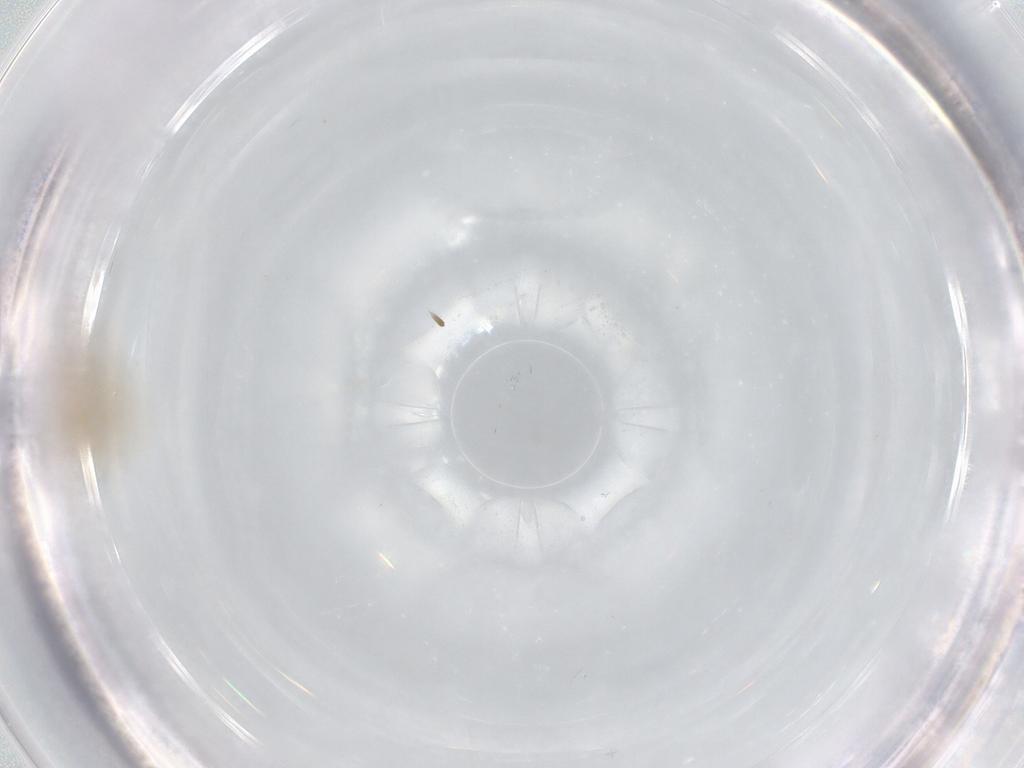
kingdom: Animalia
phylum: Arthropoda
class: Insecta
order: Diptera
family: Chironomidae
